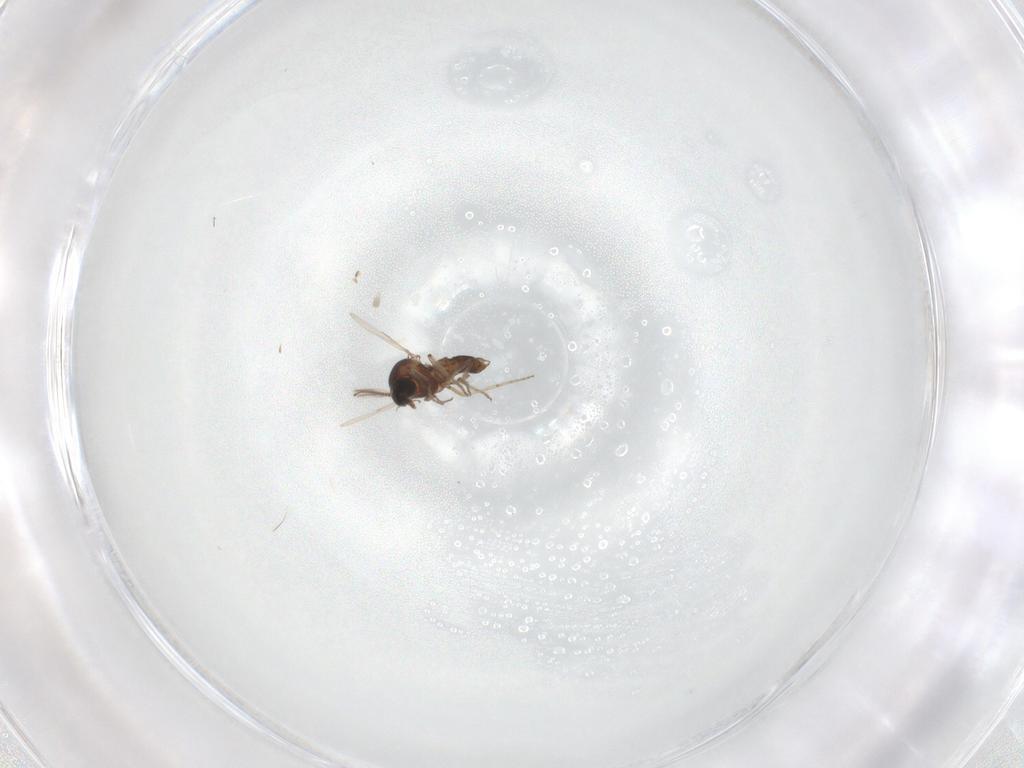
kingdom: Animalia
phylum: Arthropoda
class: Insecta
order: Diptera
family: Ceratopogonidae
